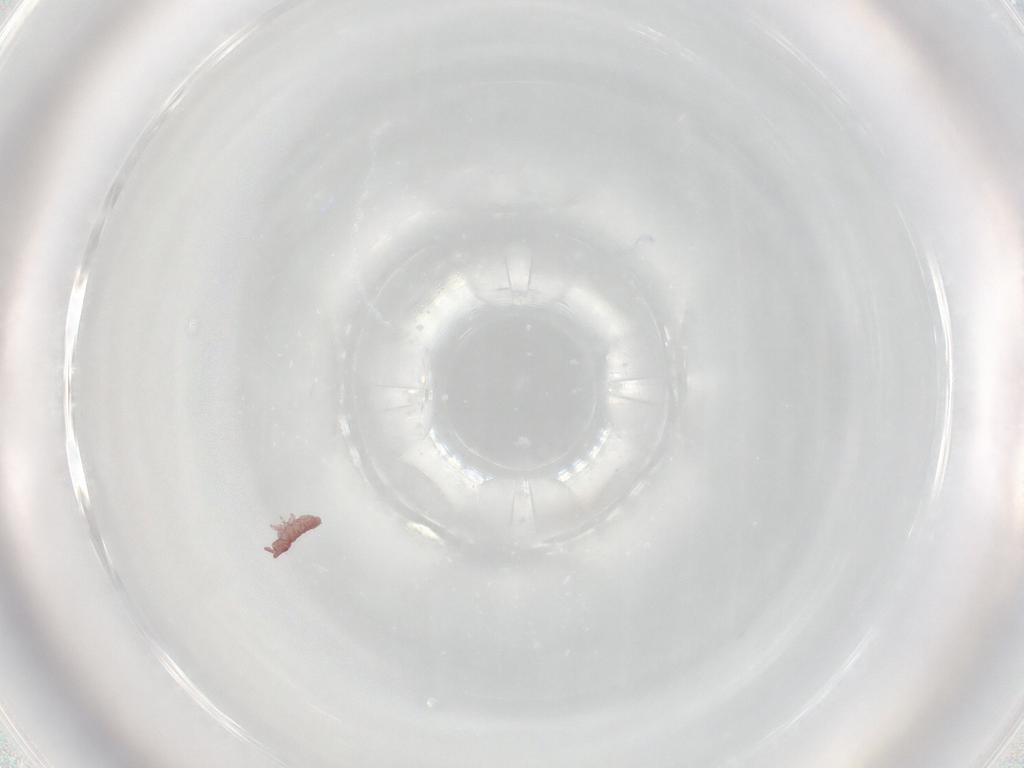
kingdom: Animalia
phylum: Arthropoda
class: Collembola
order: Poduromorpha
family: Hypogastruridae
